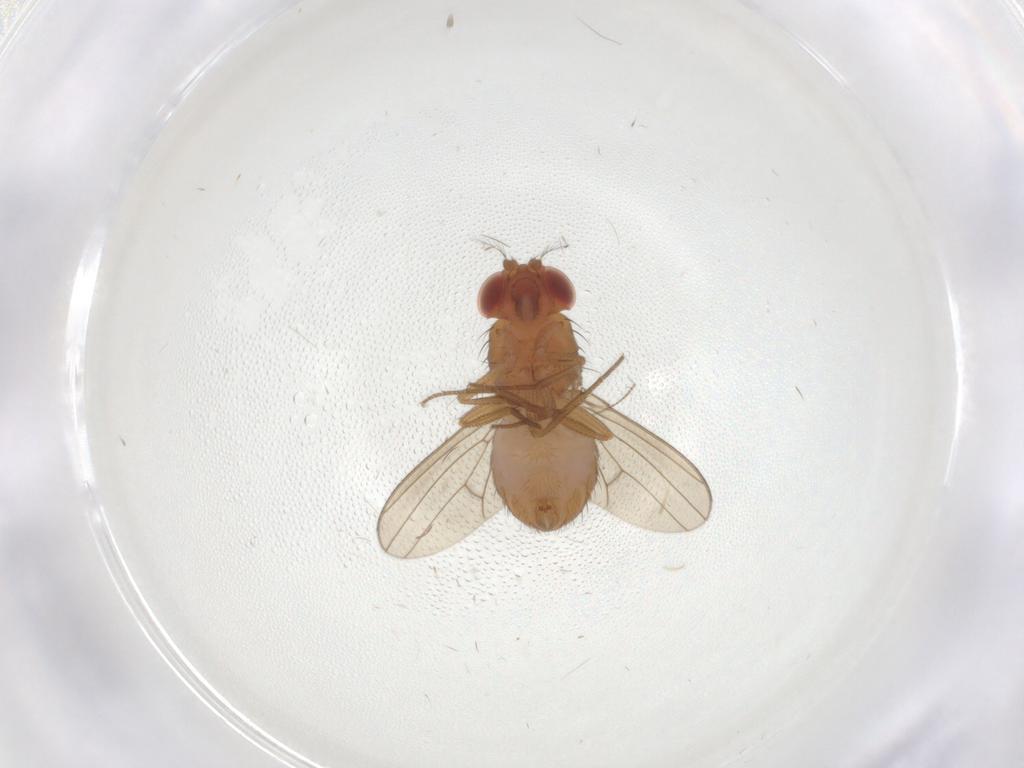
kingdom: Animalia
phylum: Arthropoda
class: Insecta
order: Diptera
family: Drosophilidae
